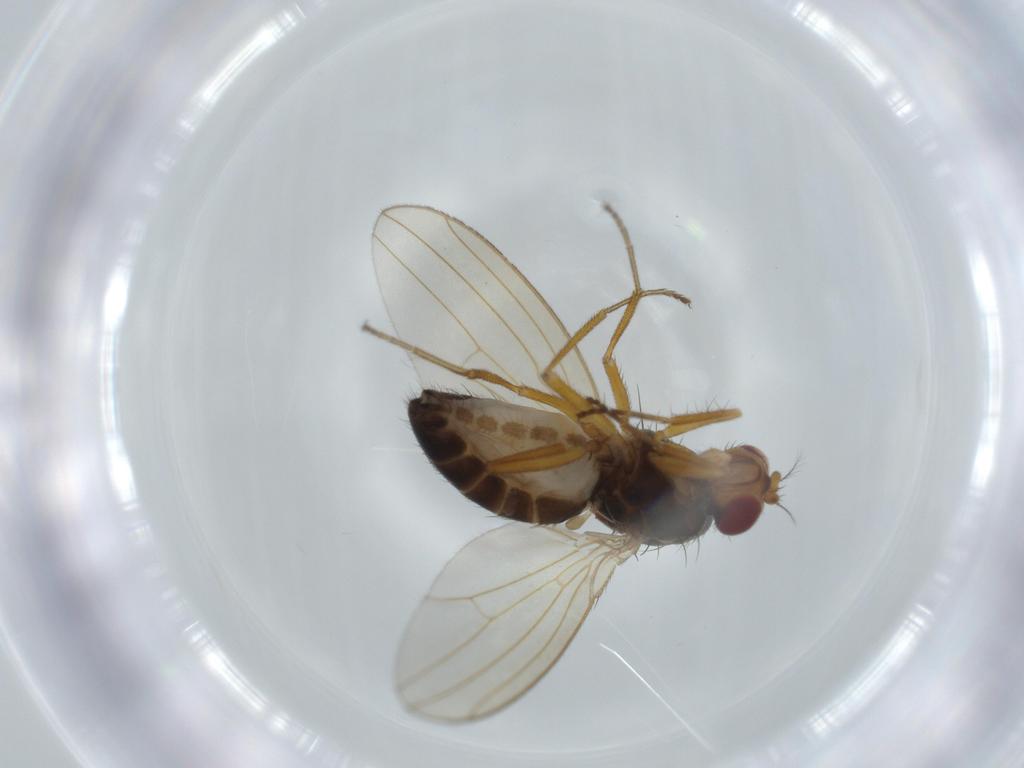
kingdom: Animalia
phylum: Arthropoda
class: Insecta
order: Diptera
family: Drosophilidae
